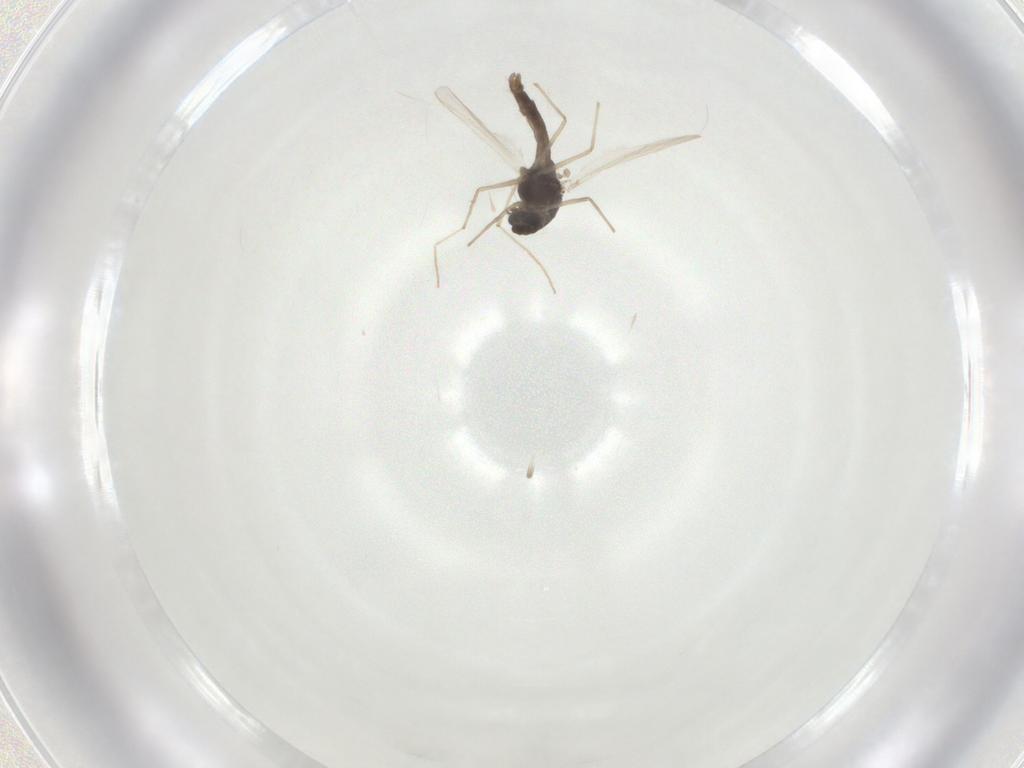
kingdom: Animalia
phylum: Arthropoda
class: Insecta
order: Diptera
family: Chironomidae
